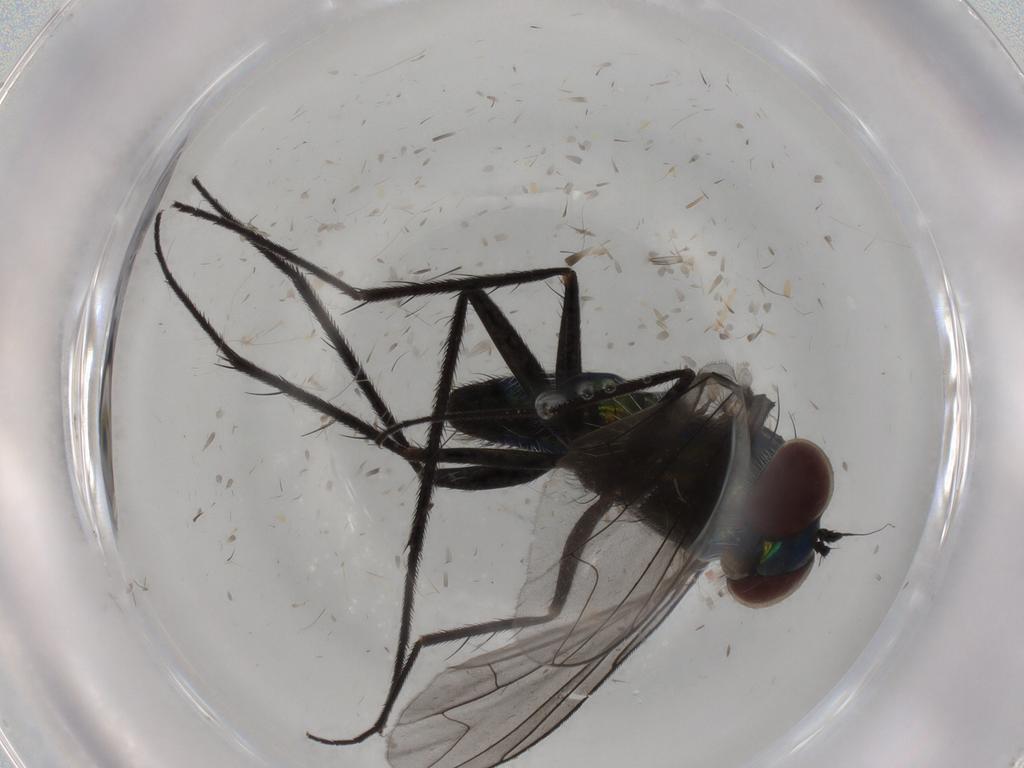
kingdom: Animalia
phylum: Arthropoda
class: Insecta
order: Diptera
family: Dolichopodidae
